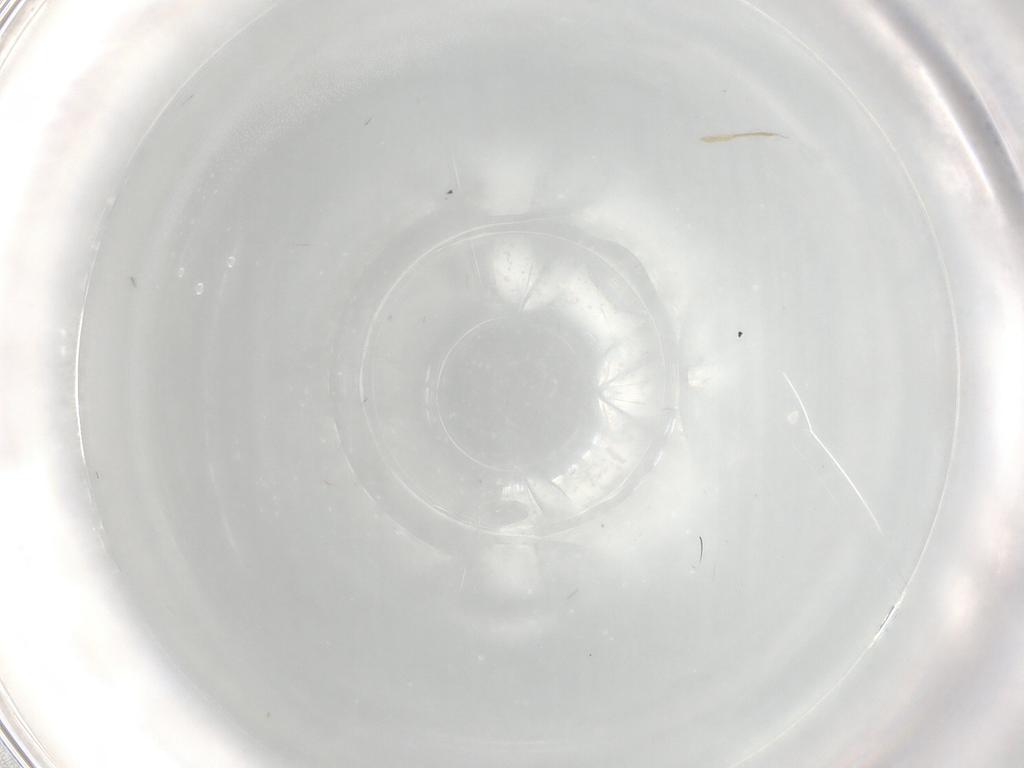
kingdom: Animalia
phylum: Arthropoda
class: Insecta
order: Diptera
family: Ceratopogonidae
